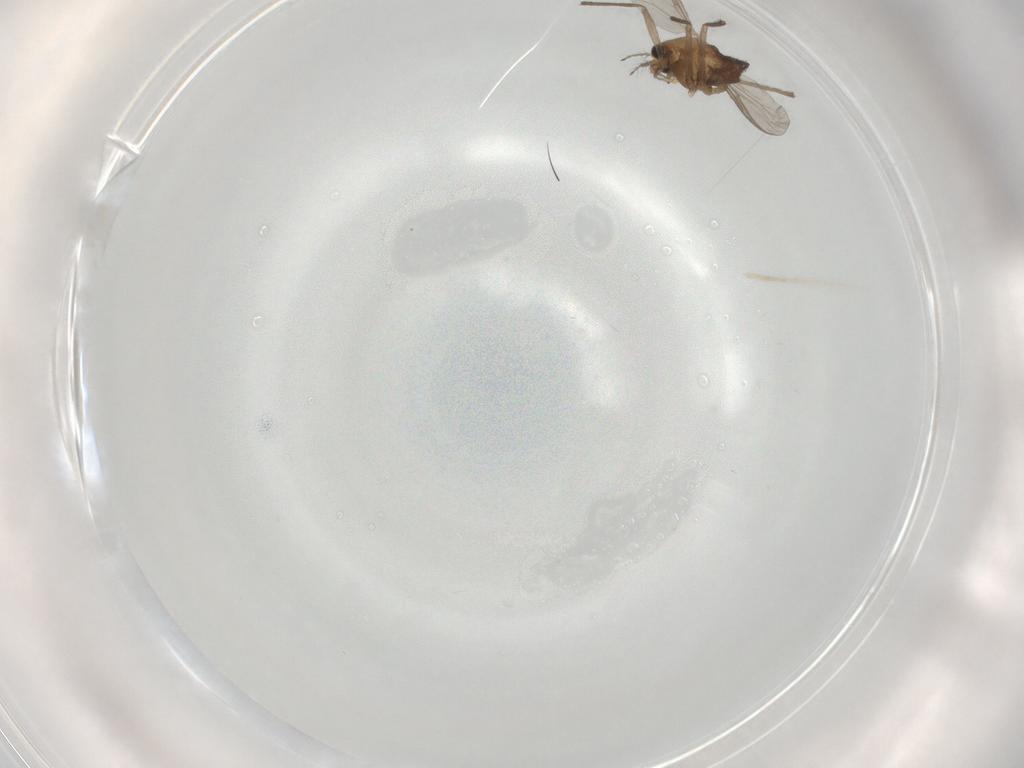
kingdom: Animalia
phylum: Arthropoda
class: Insecta
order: Diptera
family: Chironomidae
